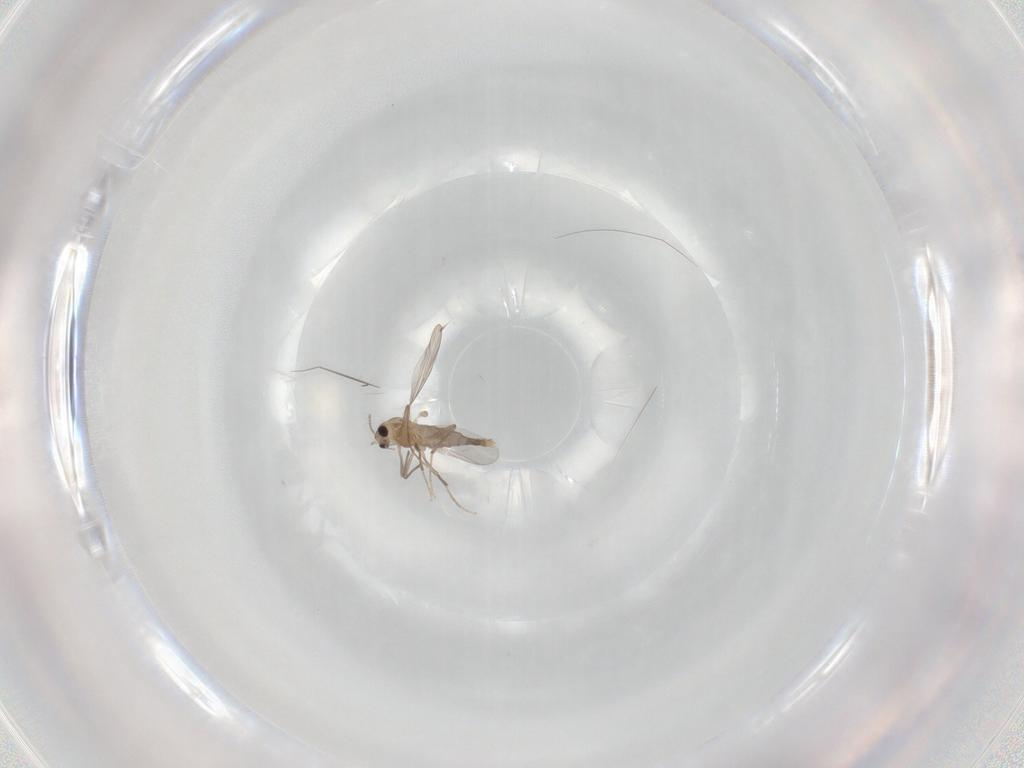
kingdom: Animalia
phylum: Arthropoda
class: Insecta
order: Diptera
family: Chironomidae
